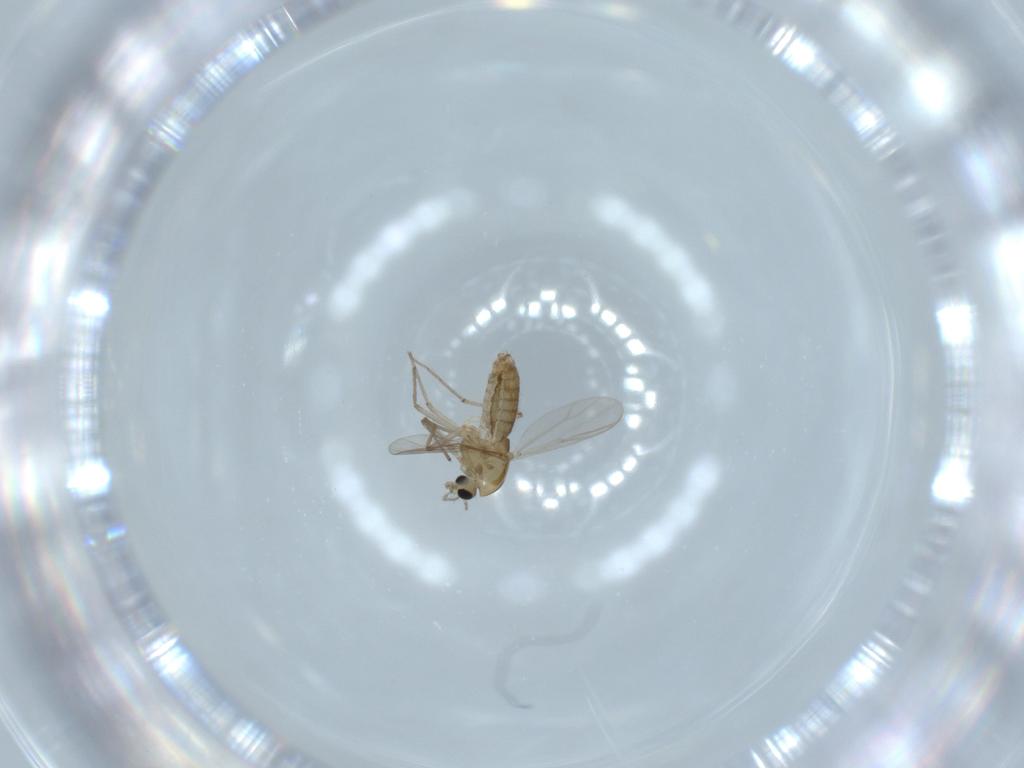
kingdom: Animalia
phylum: Arthropoda
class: Insecta
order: Diptera
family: Chironomidae
